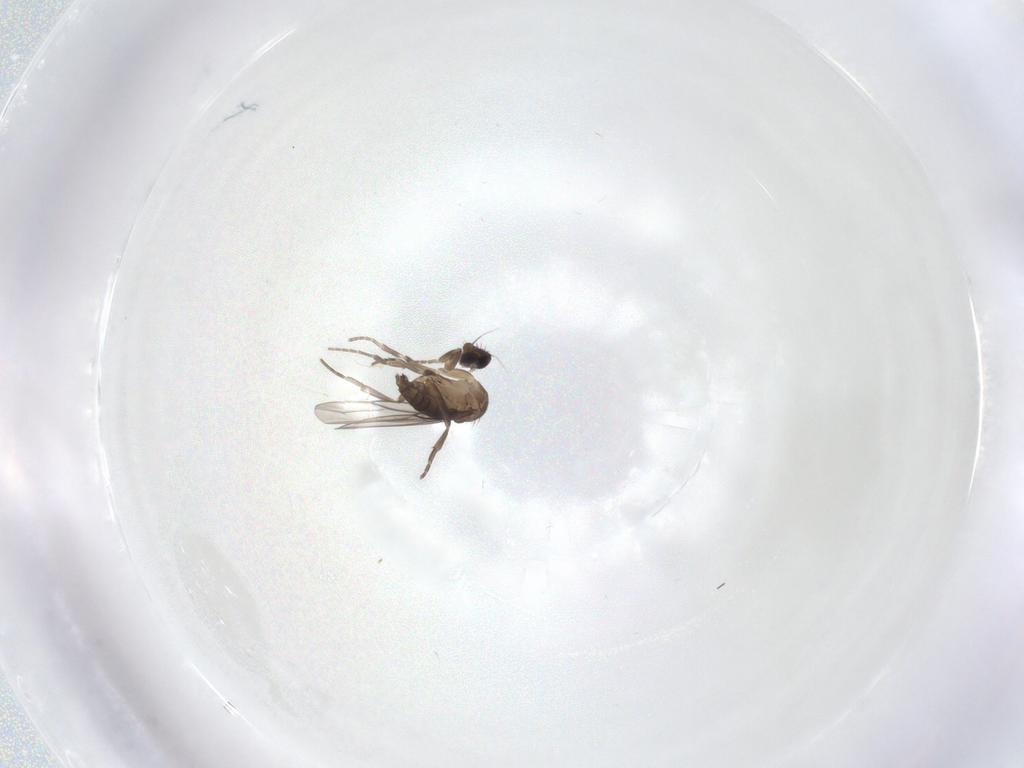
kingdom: Animalia
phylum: Arthropoda
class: Insecta
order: Diptera
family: Phoridae
